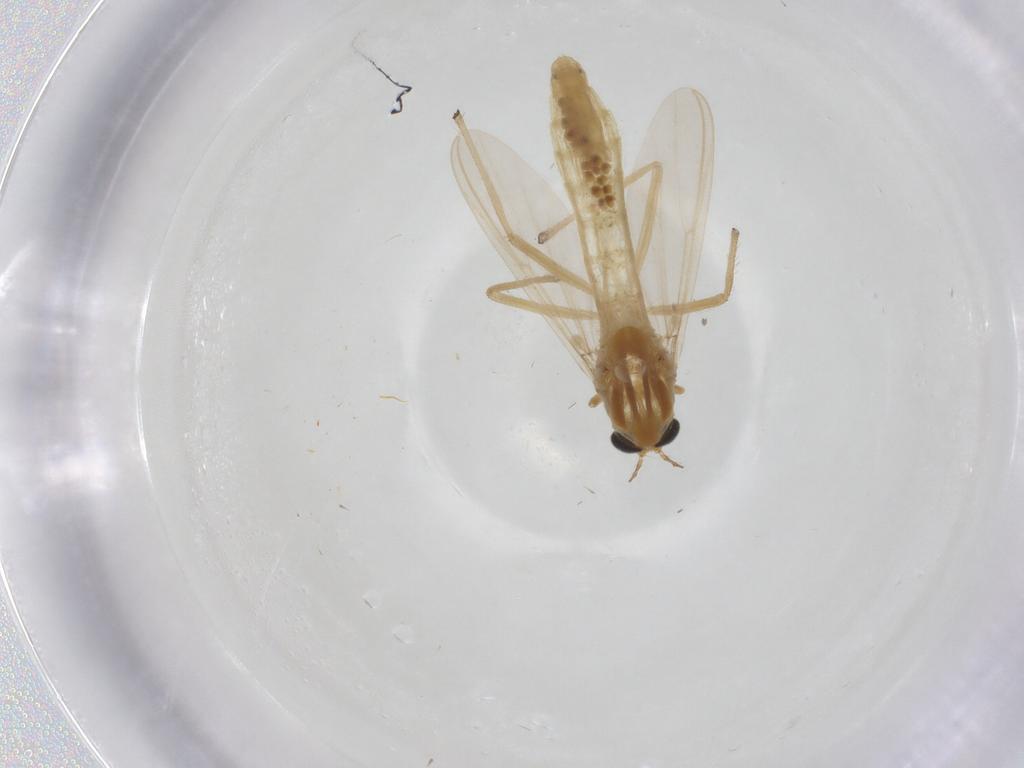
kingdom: Animalia
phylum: Arthropoda
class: Insecta
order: Diptera
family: Chironomidae
